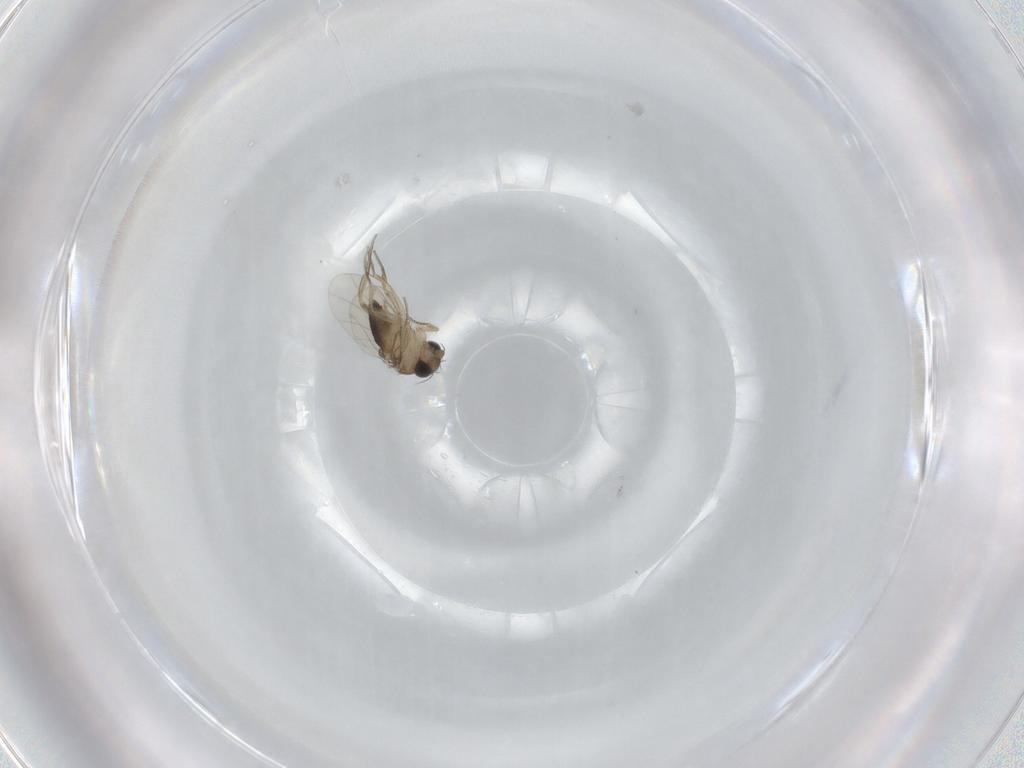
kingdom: Animalia
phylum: Arthropoda
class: Insecta
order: Diptera
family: Phoridae
